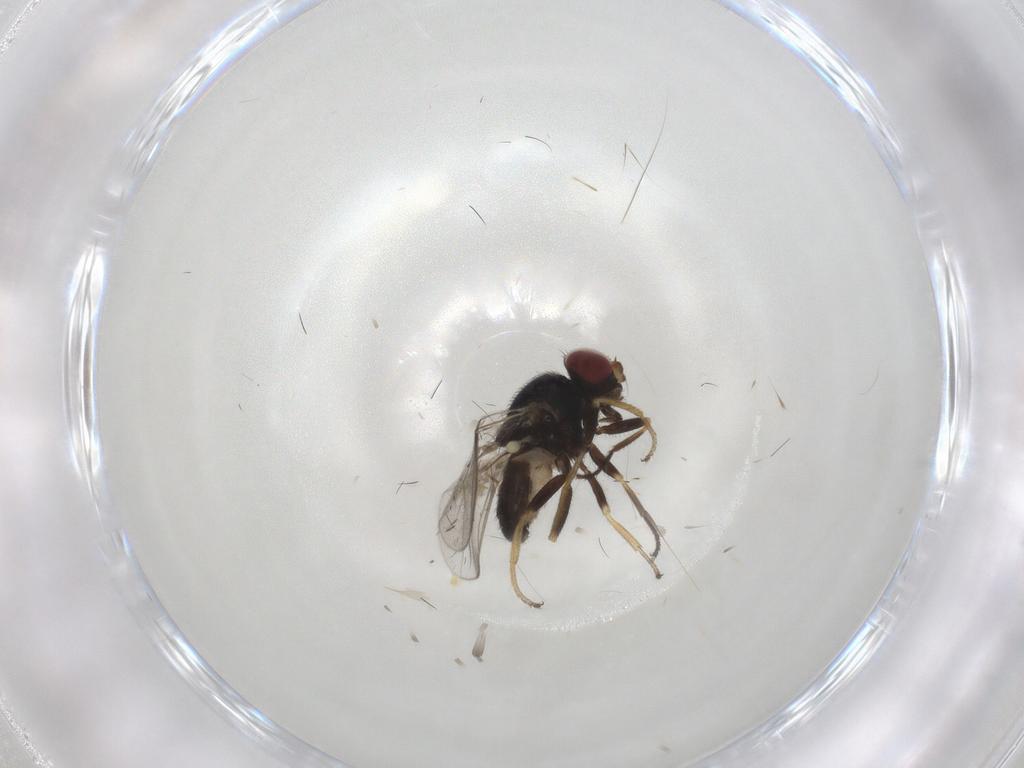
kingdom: Animalia
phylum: Arthropoda
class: Insecta
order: Diptera
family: Chloropidae
